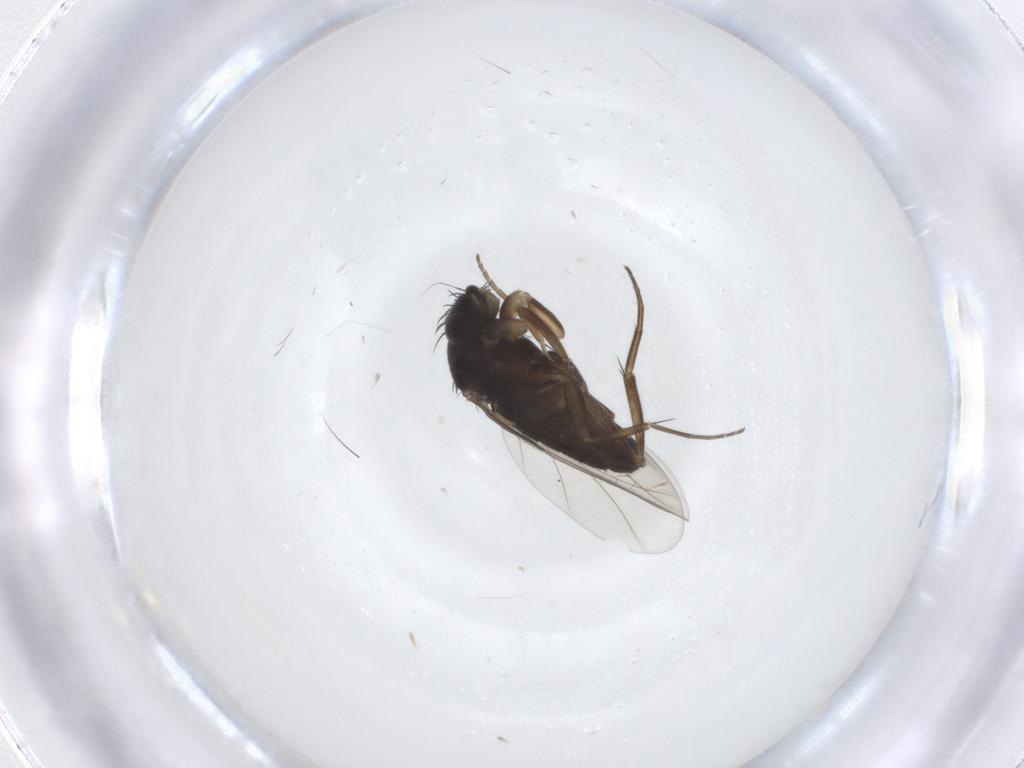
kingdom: Animalia
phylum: Arthropoda
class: Insecta
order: Diptera
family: Phoridae
